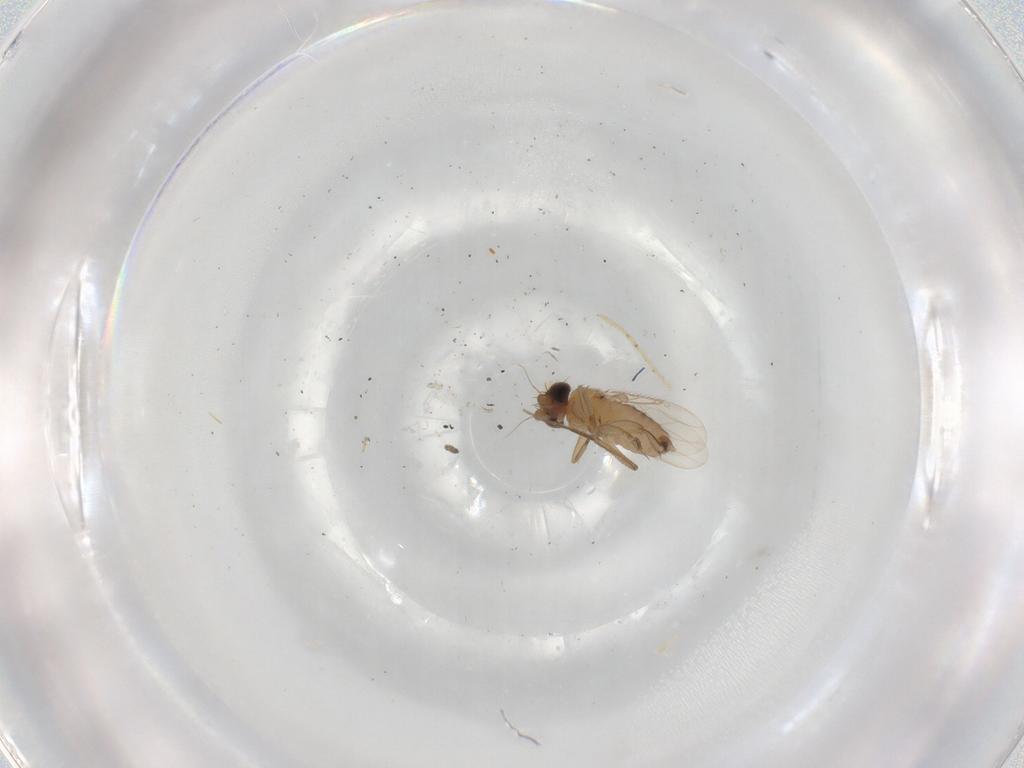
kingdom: Animalia
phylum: Arthropoda
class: Insecta
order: Diptera
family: Phoridae
